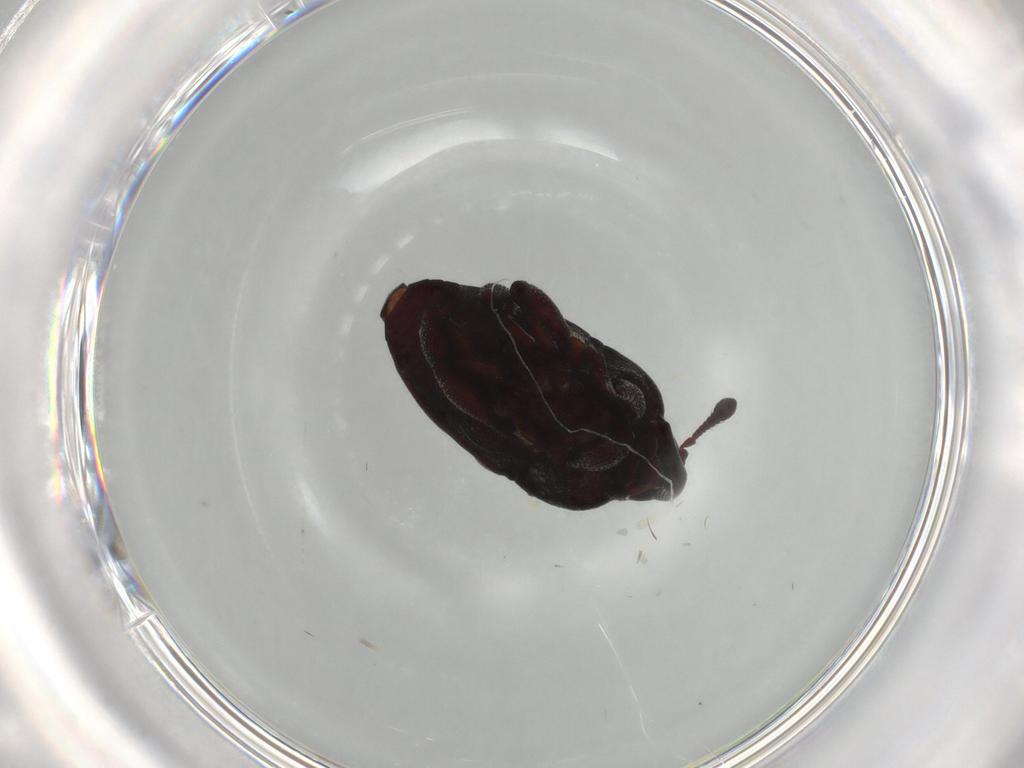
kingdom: Animalia
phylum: Arthropoda
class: Insecta
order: Coleoptera
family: Curculionidae
